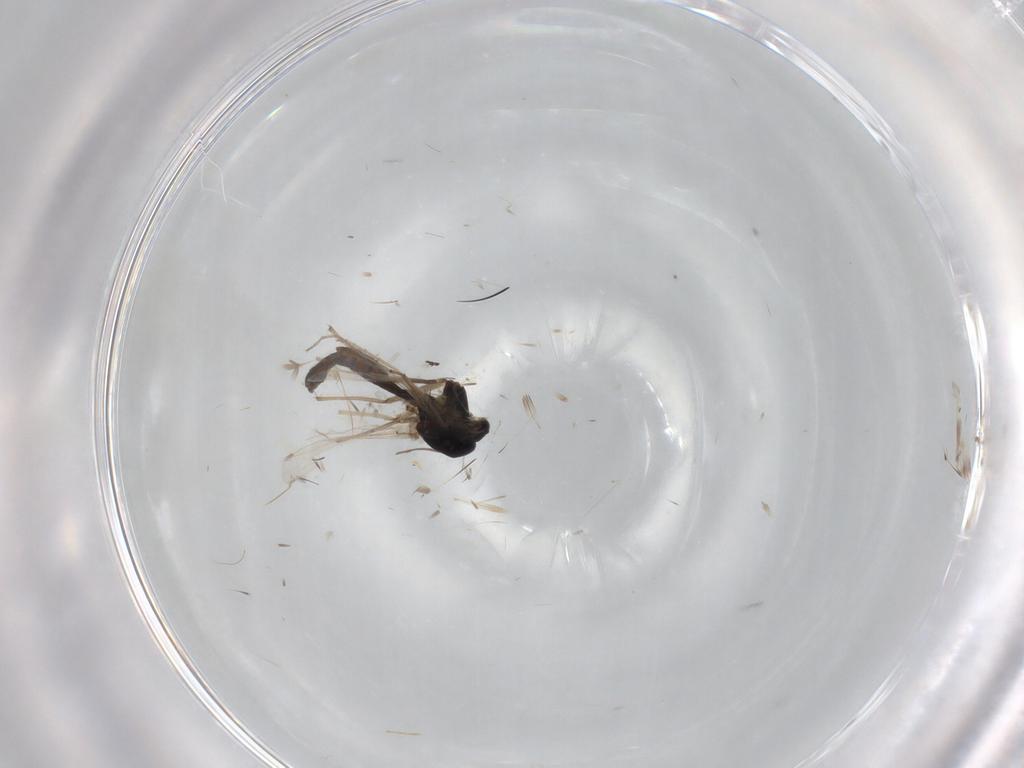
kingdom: Animalia
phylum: Arthropoda
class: Insecta
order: Diptera
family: Chironomidae
